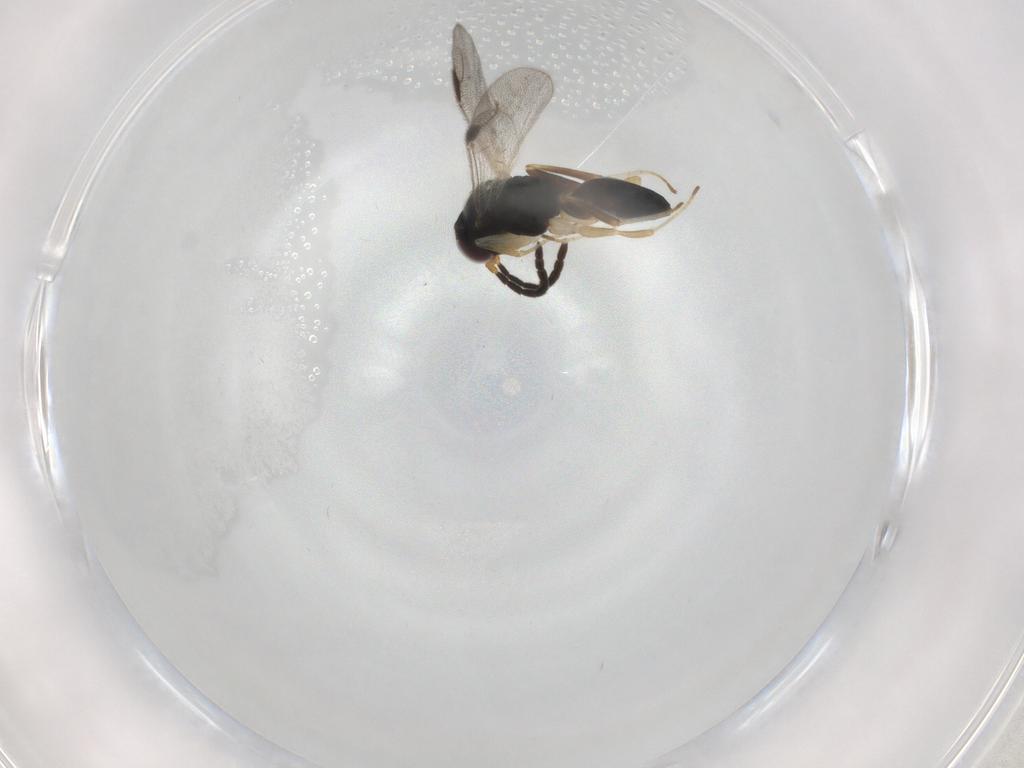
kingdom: Animalia
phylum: Arthropoda
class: Insecta
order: Hymenoptera
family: Dryinidae
